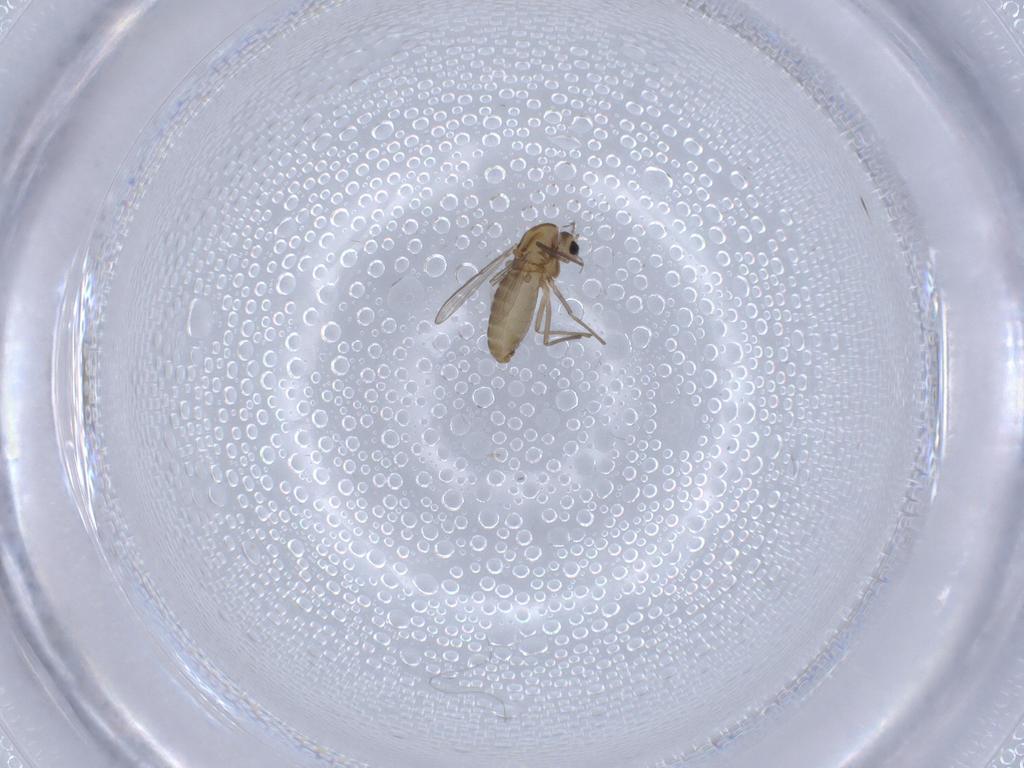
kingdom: Animalia
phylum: Arthropoda
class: Insecta
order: Diptera
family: Chironomidae
